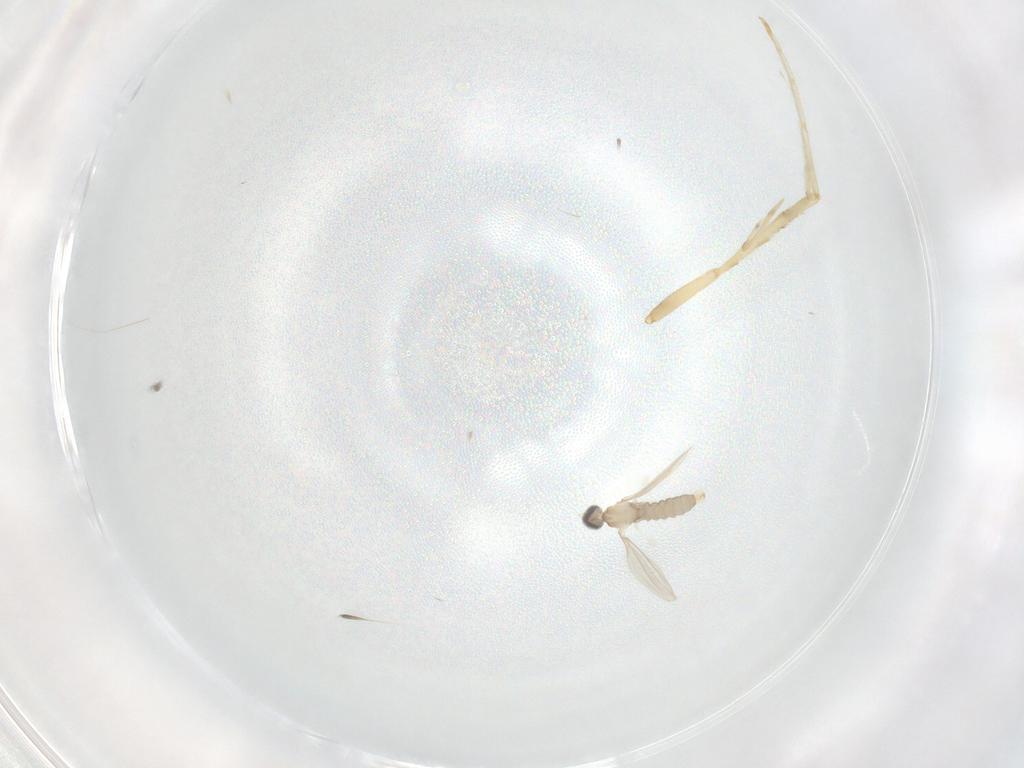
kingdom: Animalia
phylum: Arthropoda
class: Insecta
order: Diptera
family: Cecidomyiidae
